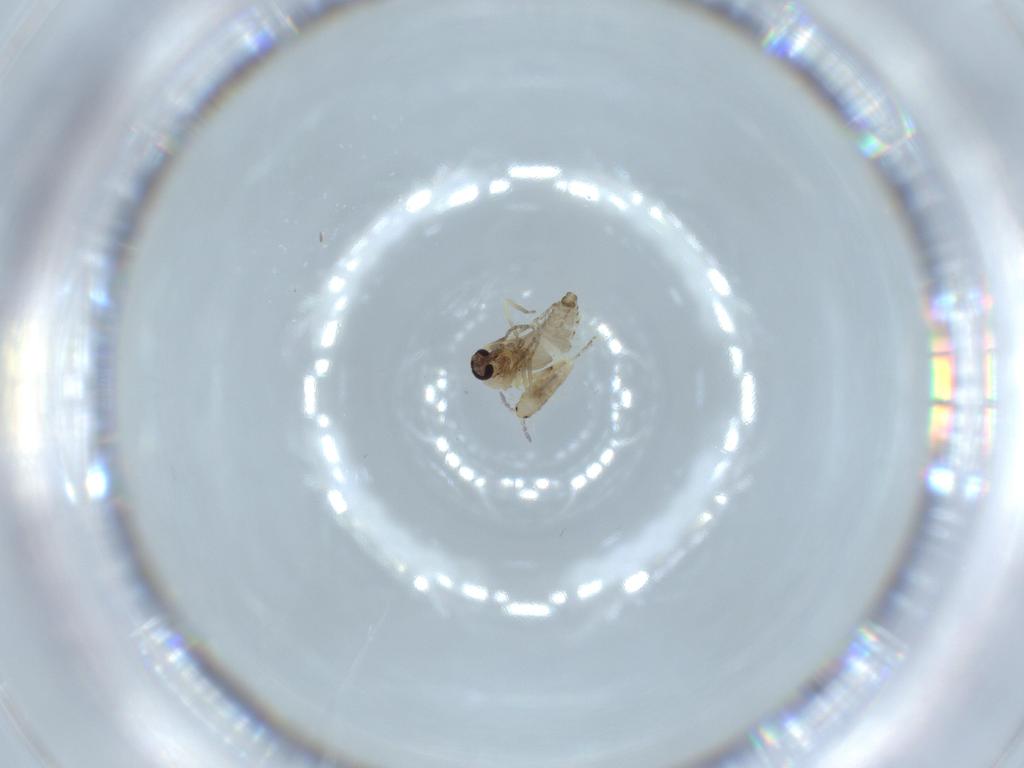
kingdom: Animalia
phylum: Arthropoda
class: Insecta
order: Diptera
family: Ceratopogonidae
